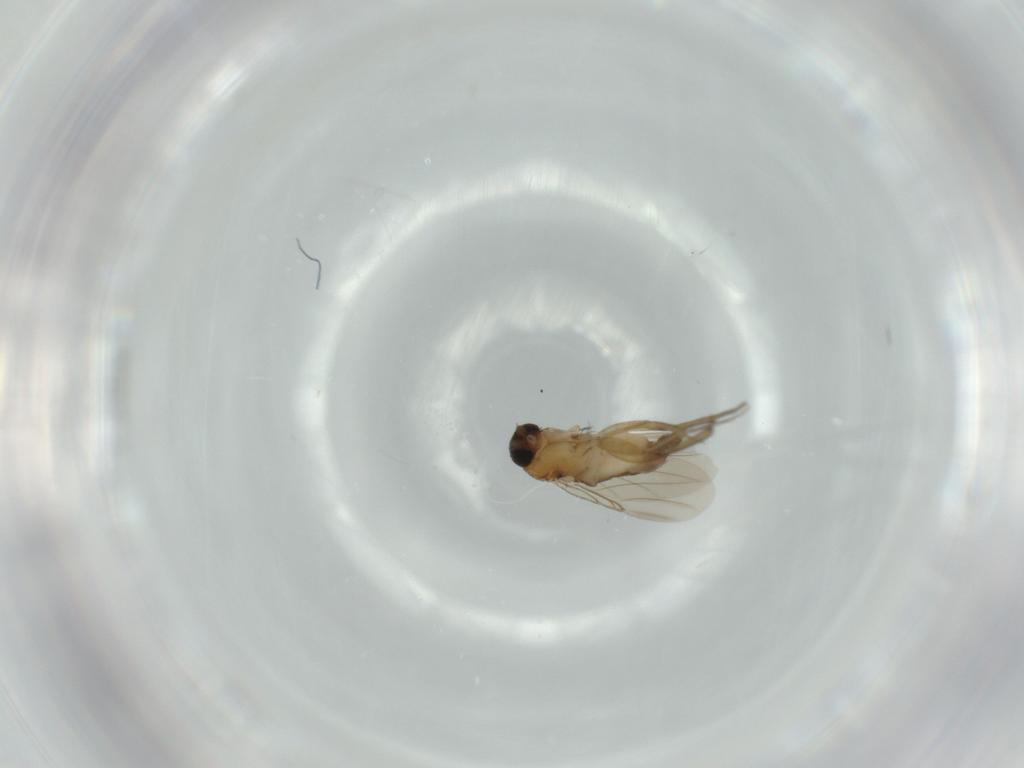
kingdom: Animalia
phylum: Arthropoda
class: Insecta
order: Diptera
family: Phoridae
